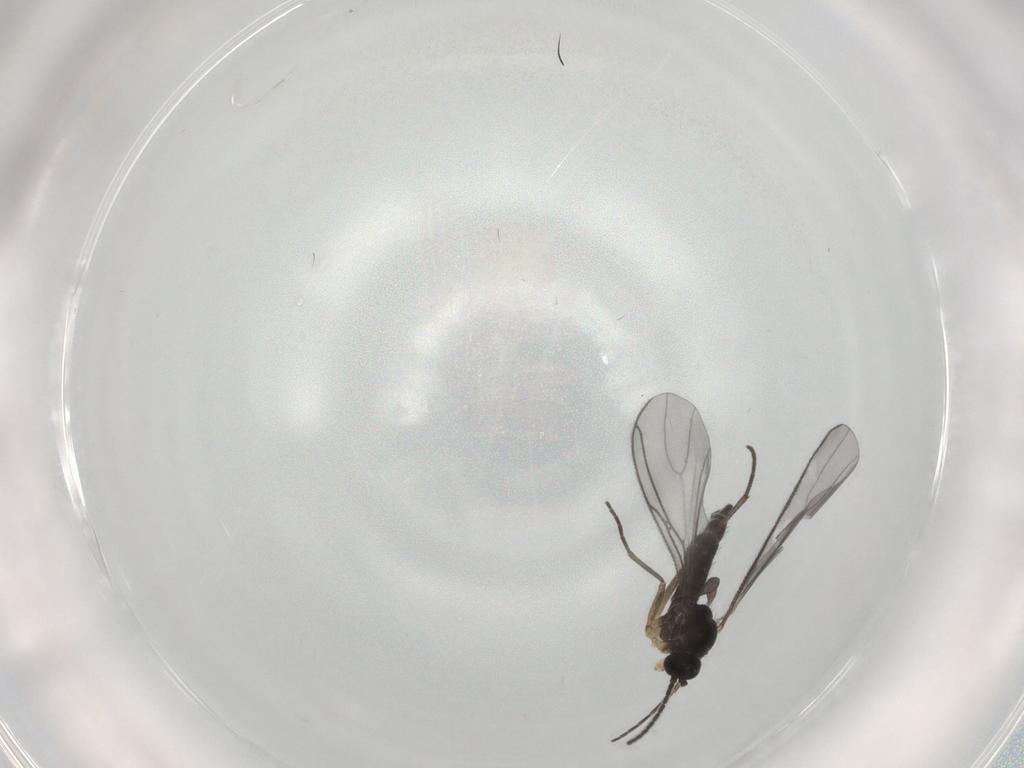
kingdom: Animalia
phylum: Arthropoda
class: Insecta
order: Diptera
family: Sciaridae
